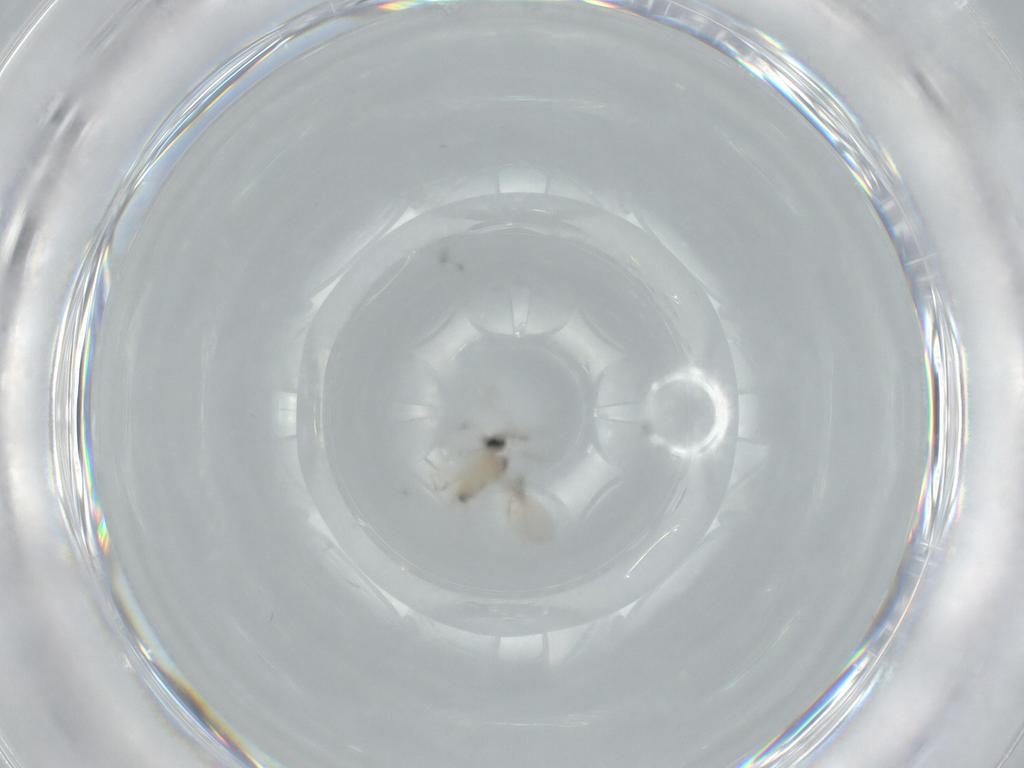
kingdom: Animalia
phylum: Arthropoda
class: Insecta
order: Diptera
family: Cecidomyiidae
